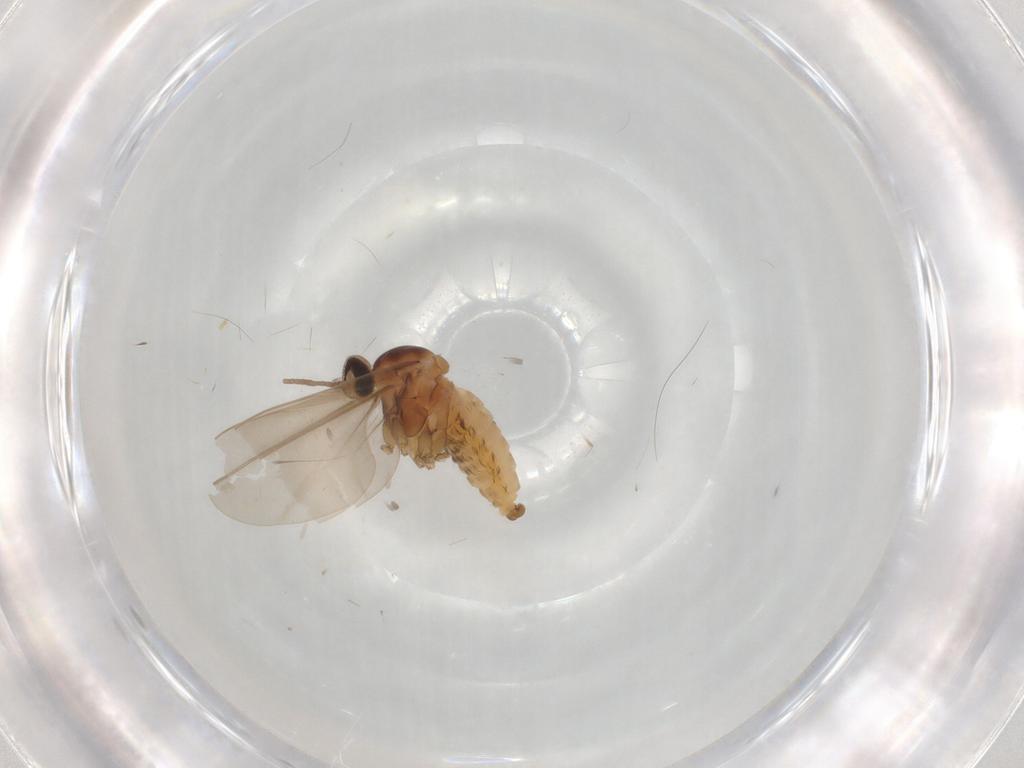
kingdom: Animalia
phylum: Arthropoda
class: Insecta
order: Diptera
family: Cecidomyiidae
